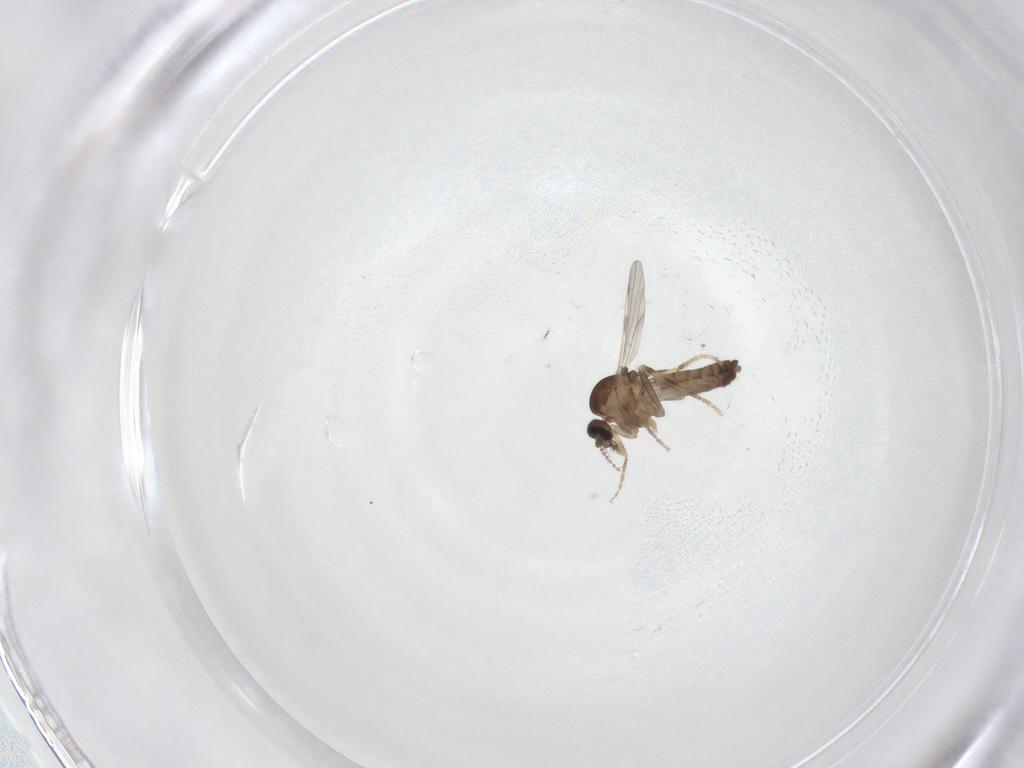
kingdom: Animalia
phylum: Arthropoda
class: Insecta
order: Diptera
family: Ceratopogonidae
